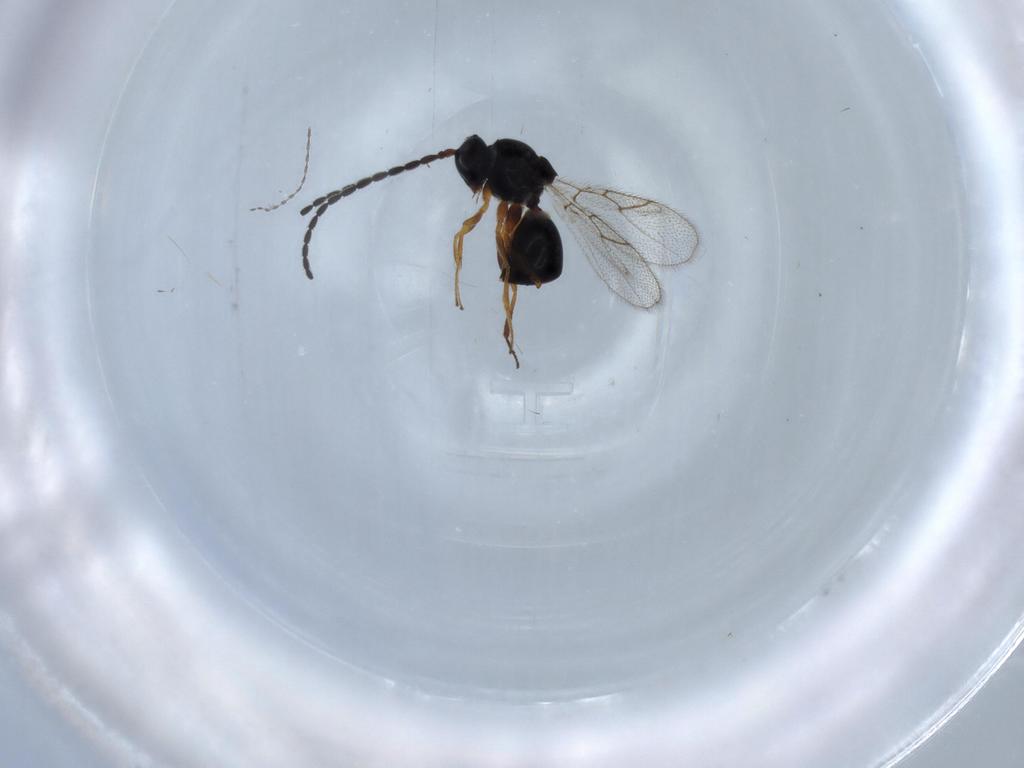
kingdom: Animalia
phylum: Arthropoda
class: Insecta
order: Hymenoptera
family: Figitidae
